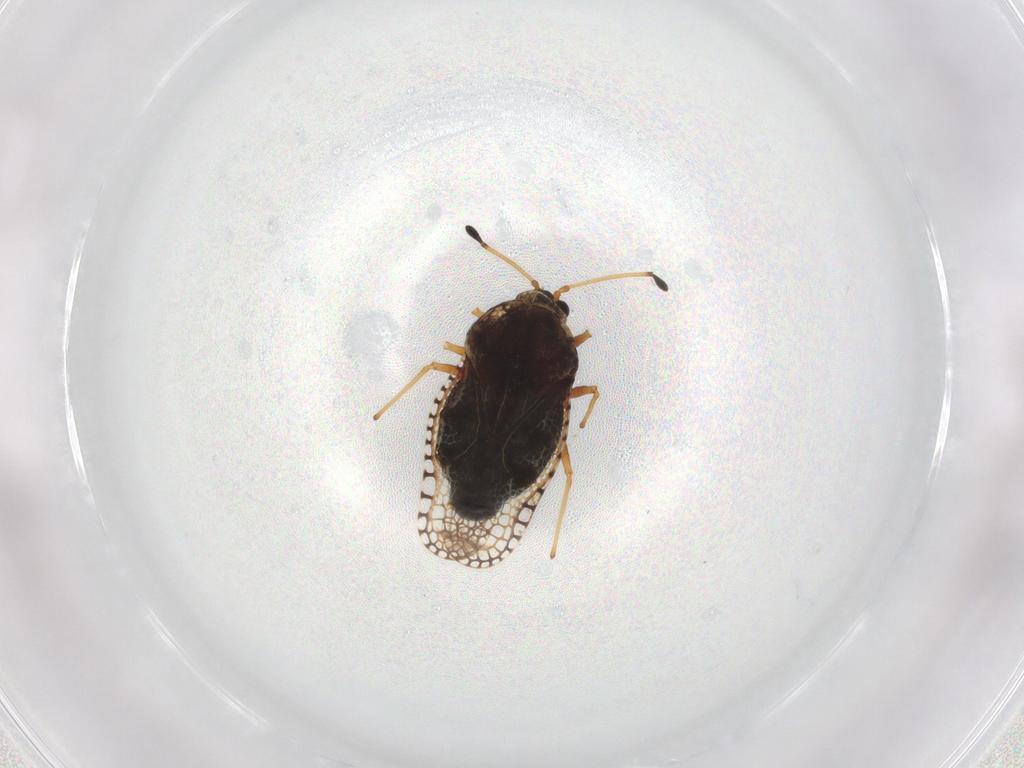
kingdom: Animalia
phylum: Arthropoda
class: Insecta
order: Hemiptera
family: Tingidae
